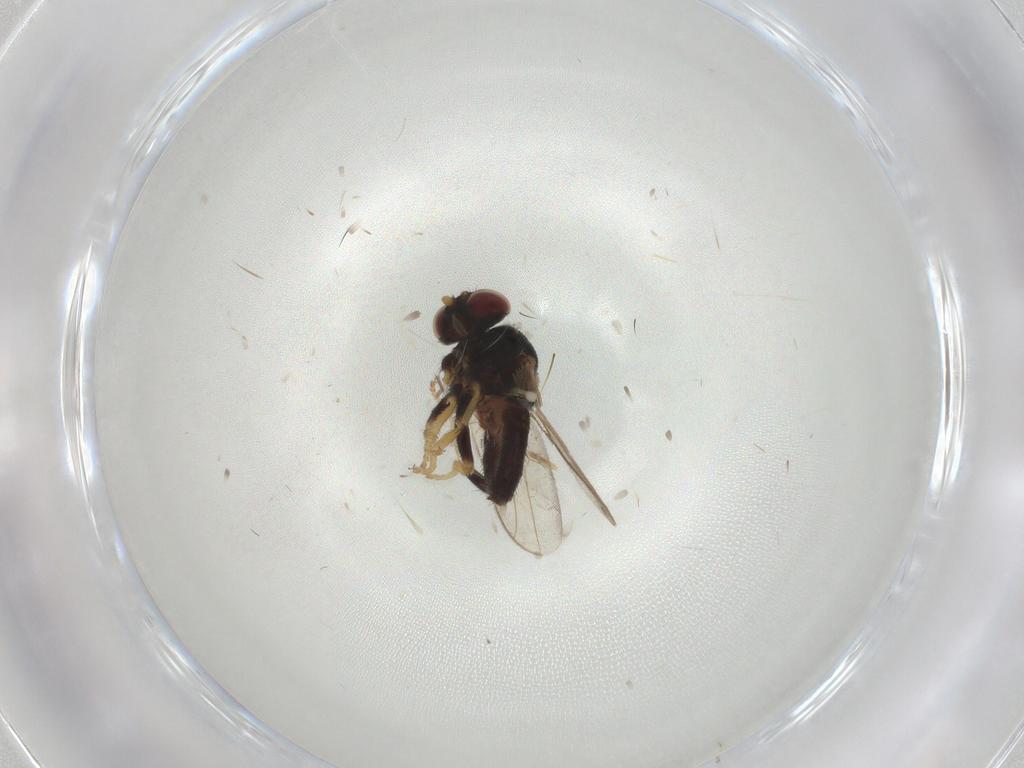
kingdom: Animalia
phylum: Arthropoda
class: Insecta
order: Diptera
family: Chloropidae
